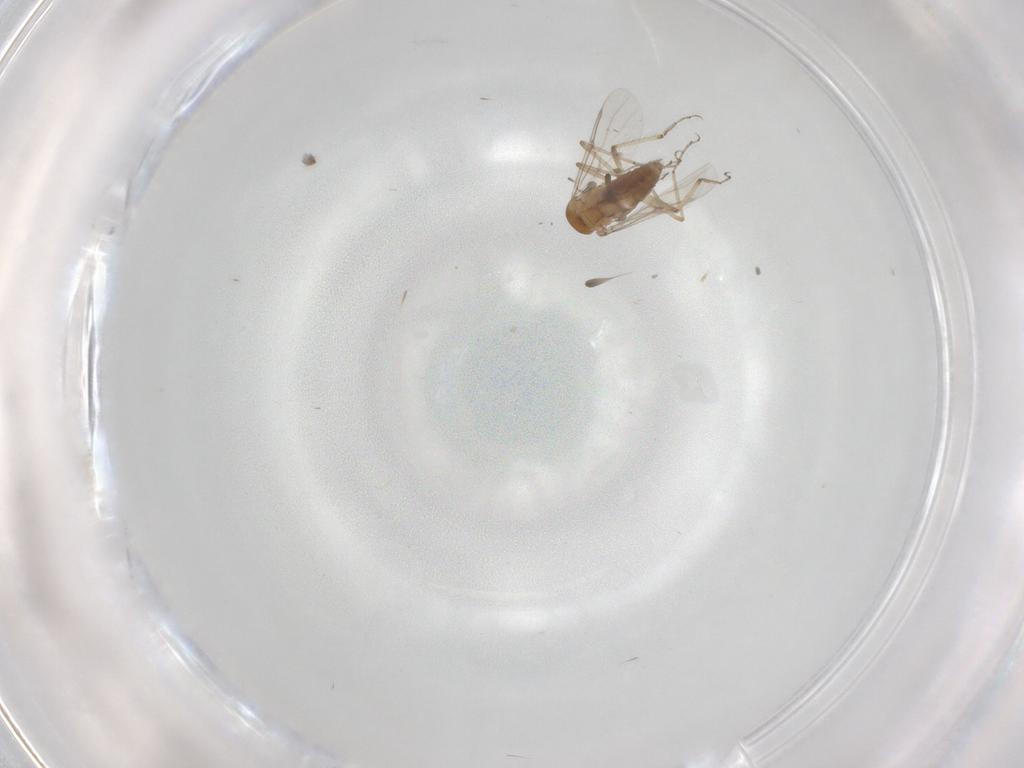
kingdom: Animalia
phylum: Arthropoda
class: Insecta
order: Diptera
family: Ceratopogonidae
